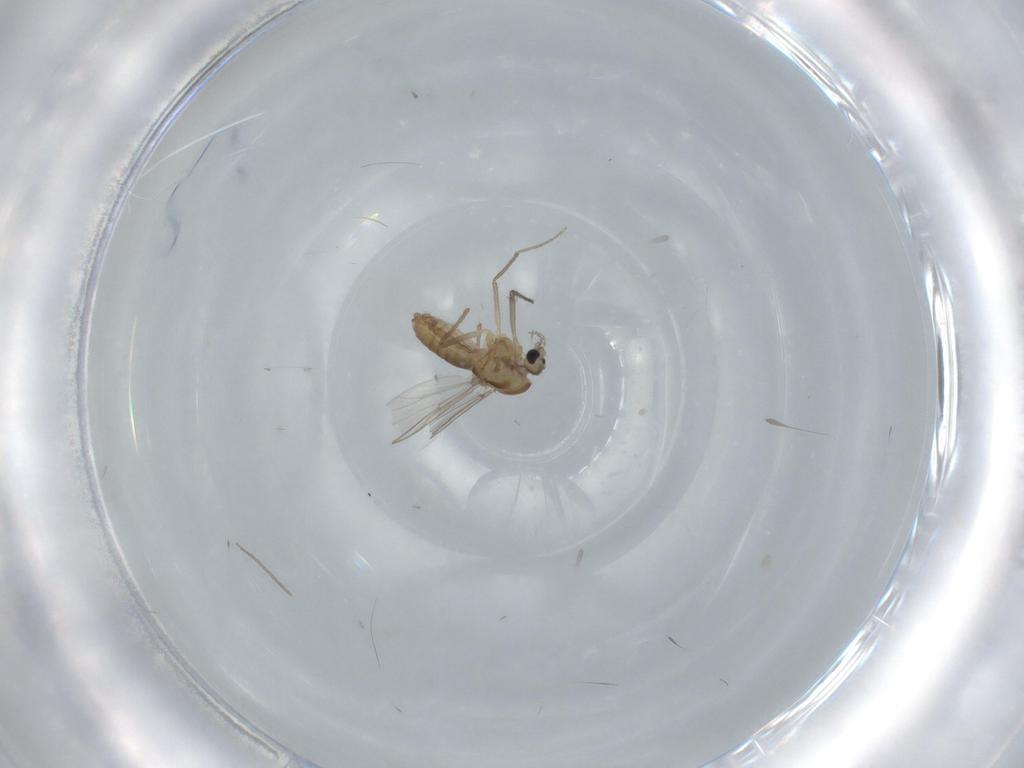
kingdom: Animalia
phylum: Arthropoda
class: Insecta
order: Diptera
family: Chironomidae
